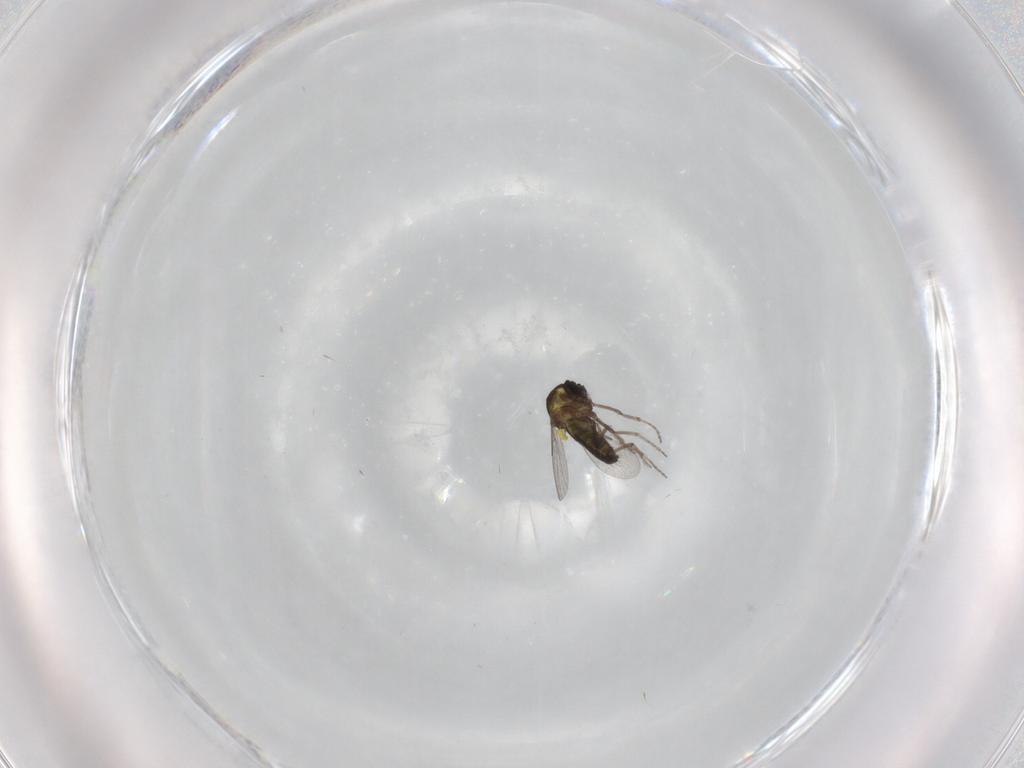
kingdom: Animalia
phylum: Arthropoda
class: Insecta
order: Diptera
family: Ceratopogonidae
